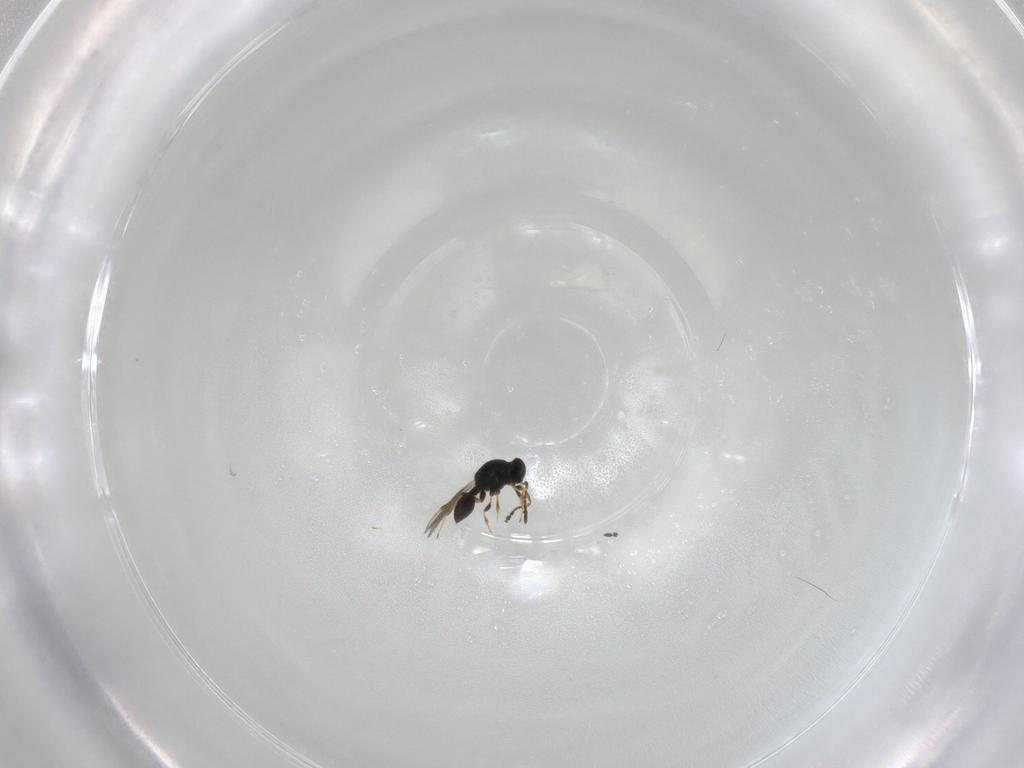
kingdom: Animalia
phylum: Arthropoda
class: Insecta
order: Hymenoptera
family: Platygastridae
